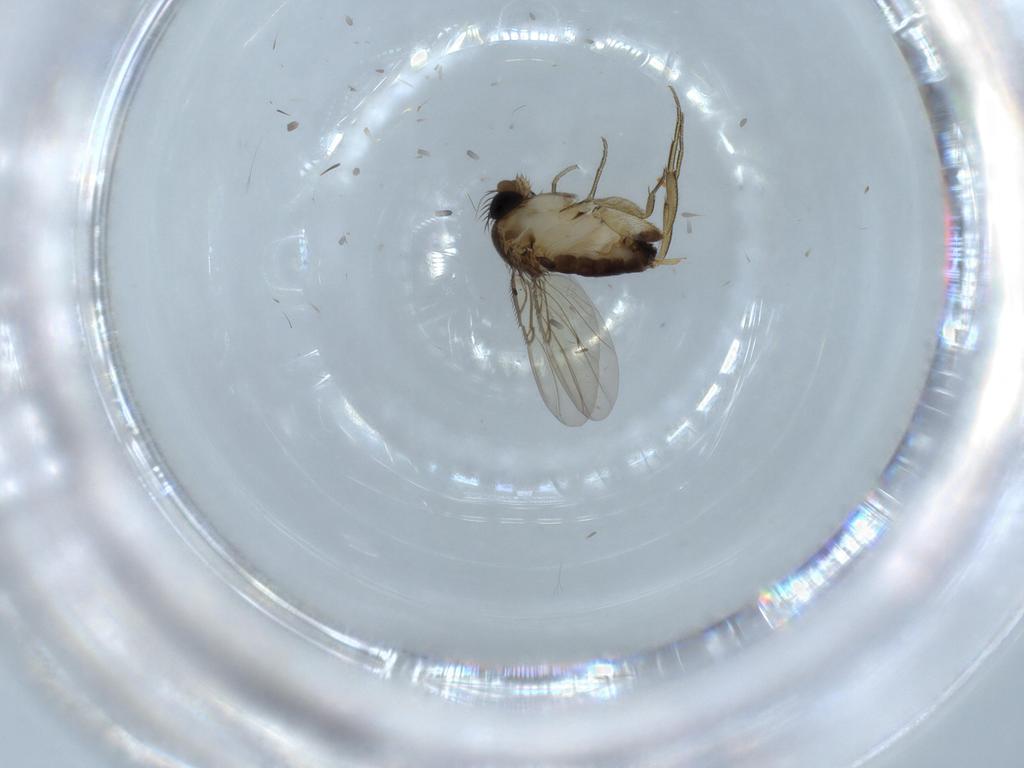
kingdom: Animalia
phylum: Arthropoda
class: Insecta
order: Diptera
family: Phoridae
